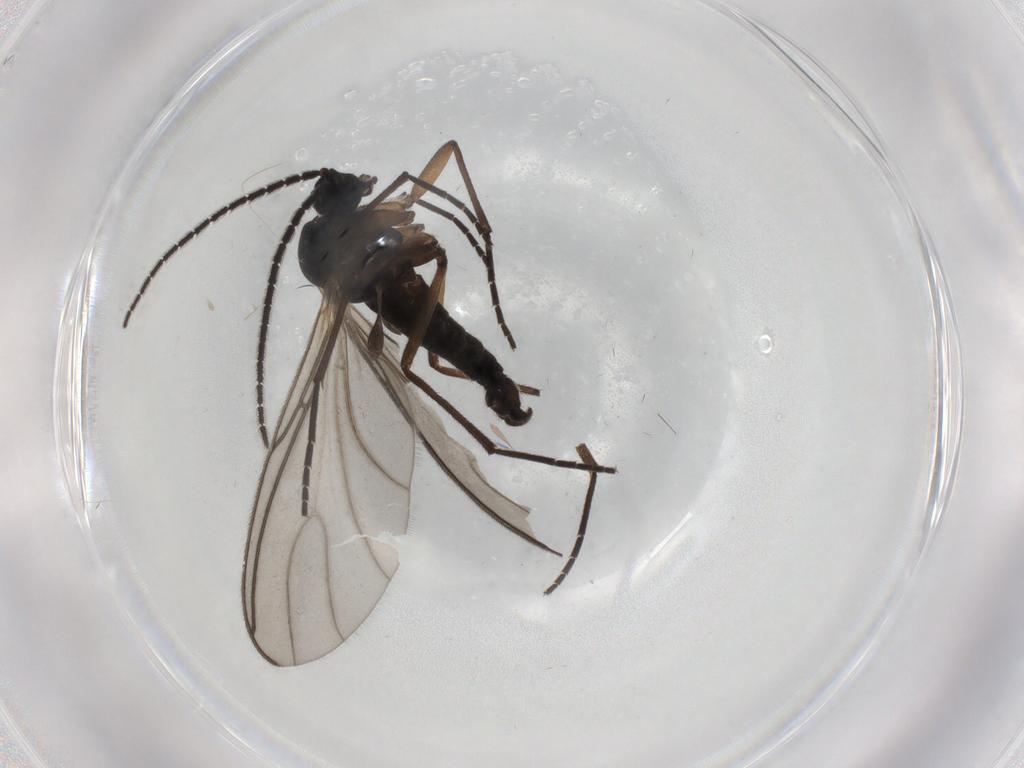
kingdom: Animalia
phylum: Arthropoda
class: Insecta
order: Diptera
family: Sciaridae
